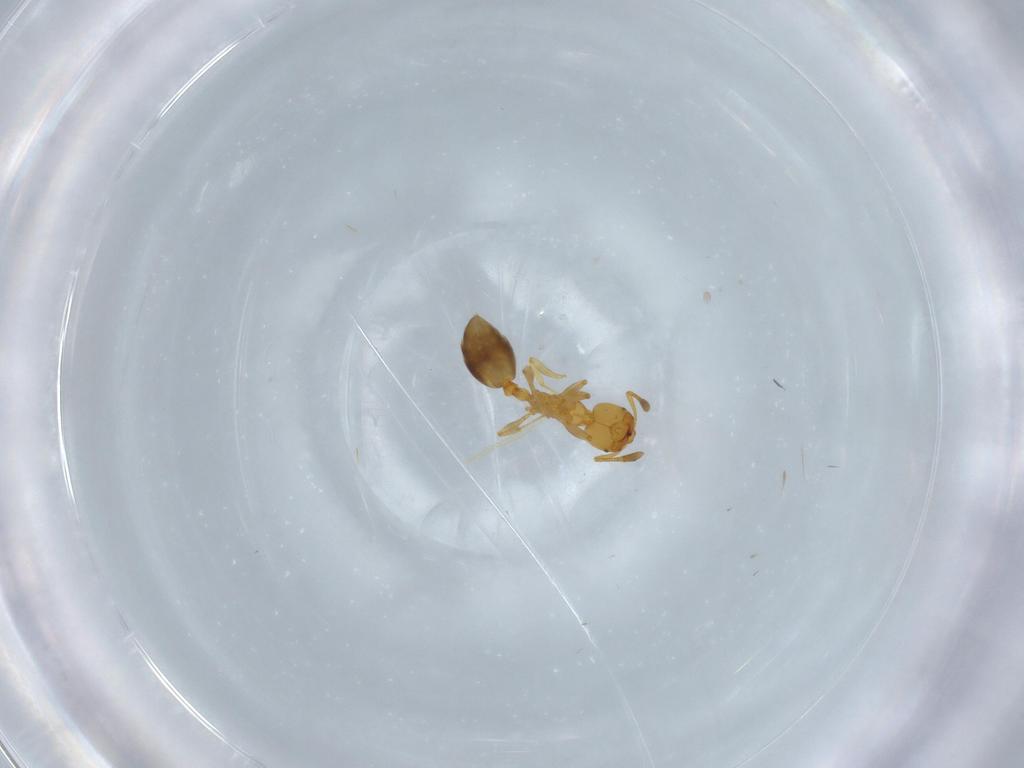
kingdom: Animalia
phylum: Arthropoda
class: Insecta
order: Hymenoptera
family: Formicidae
